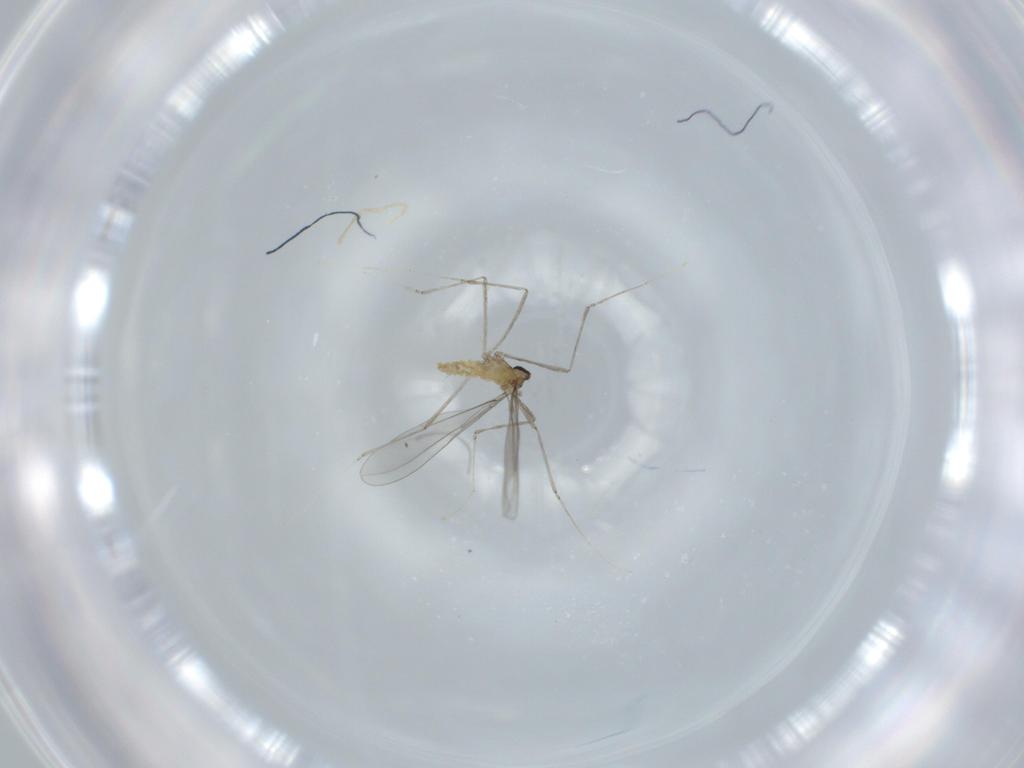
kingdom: Animalia
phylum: Arthropoda
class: Insecta
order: Diptera
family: Cecidomyiidae
